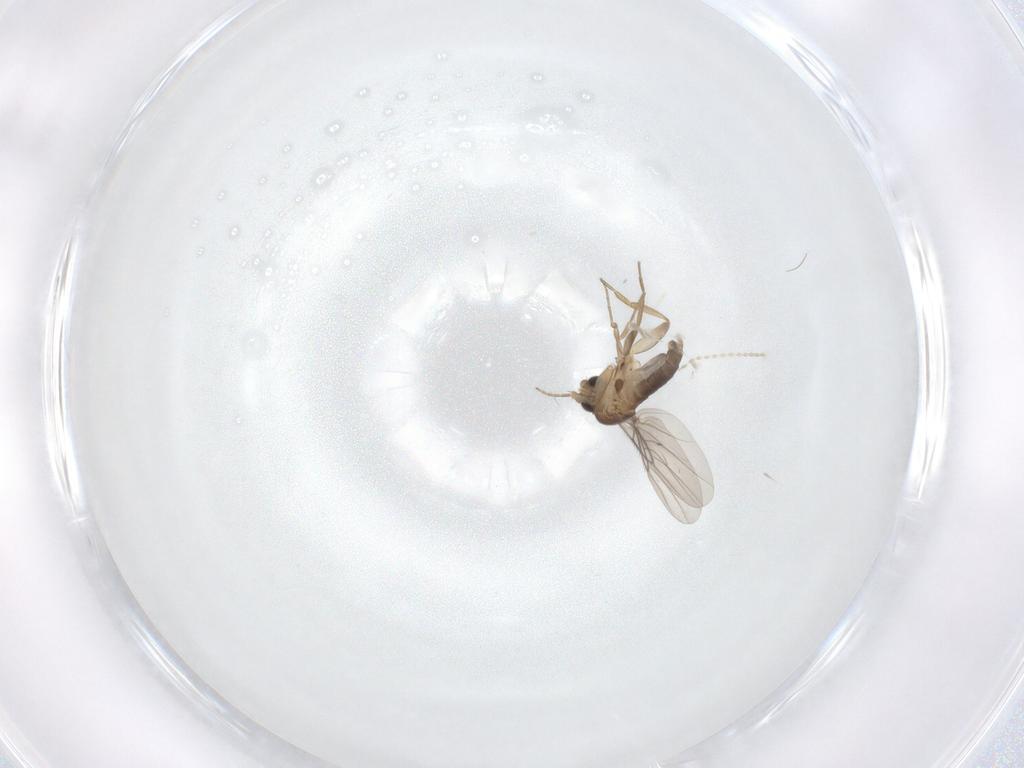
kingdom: Animalia
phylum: Arthropoda
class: Insecta
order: Diptera
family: Phoridae
